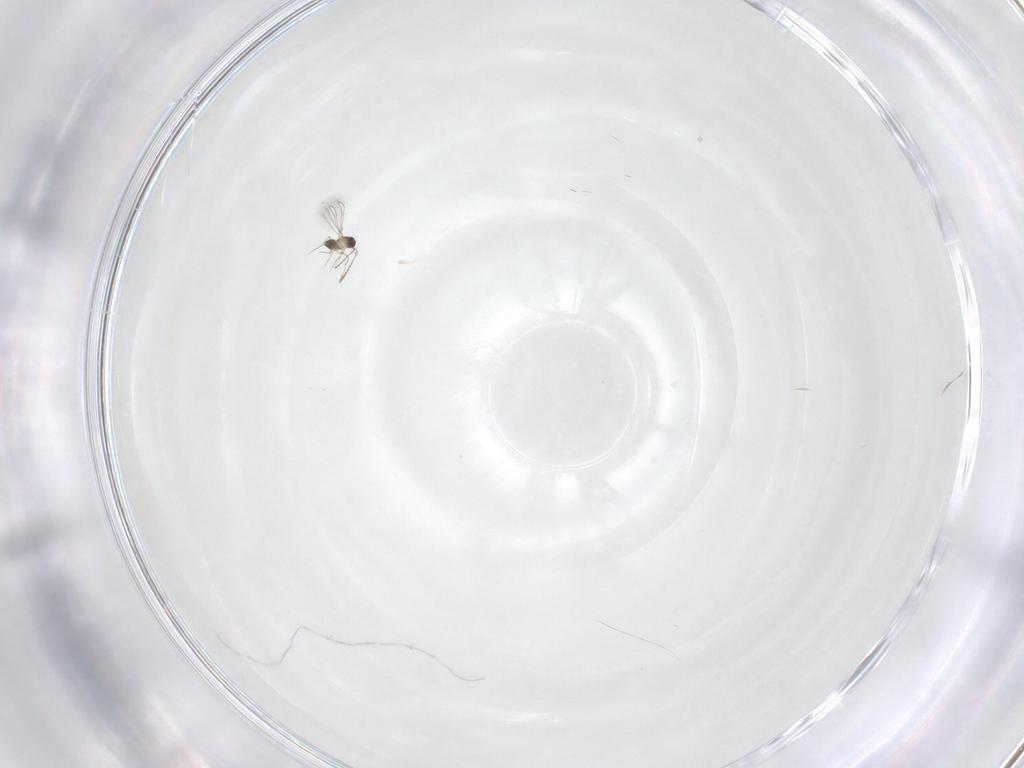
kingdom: Animalia
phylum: Arthropoda
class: Insecta
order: Hymenoptera
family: Mymaridae
